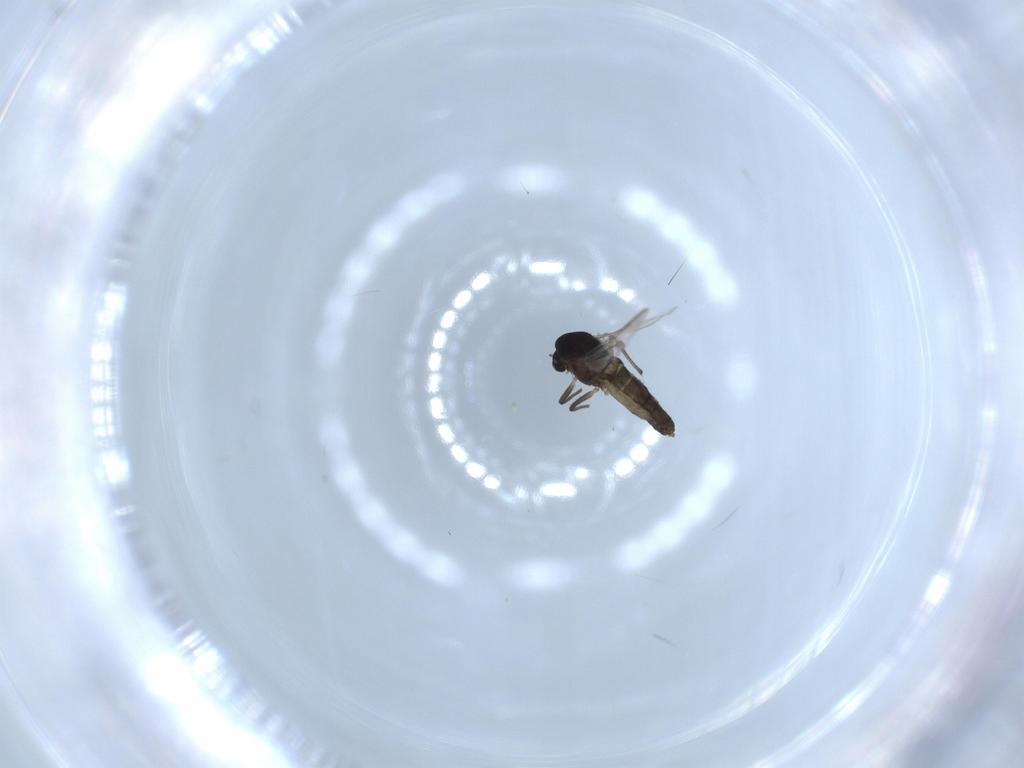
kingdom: Animalia
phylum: Arthropoda
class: Insecta
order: Diptera
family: Chironomidae
